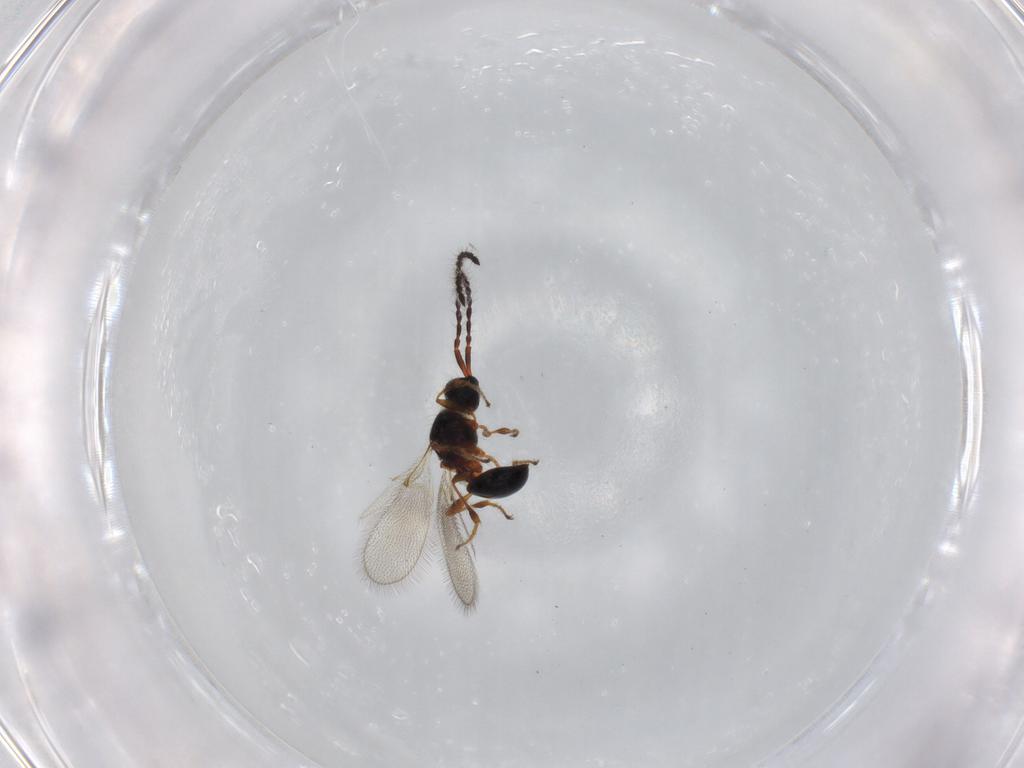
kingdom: Animalia
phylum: Arthropoda
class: Insecta
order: Hymenoptera
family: Diapriidae
